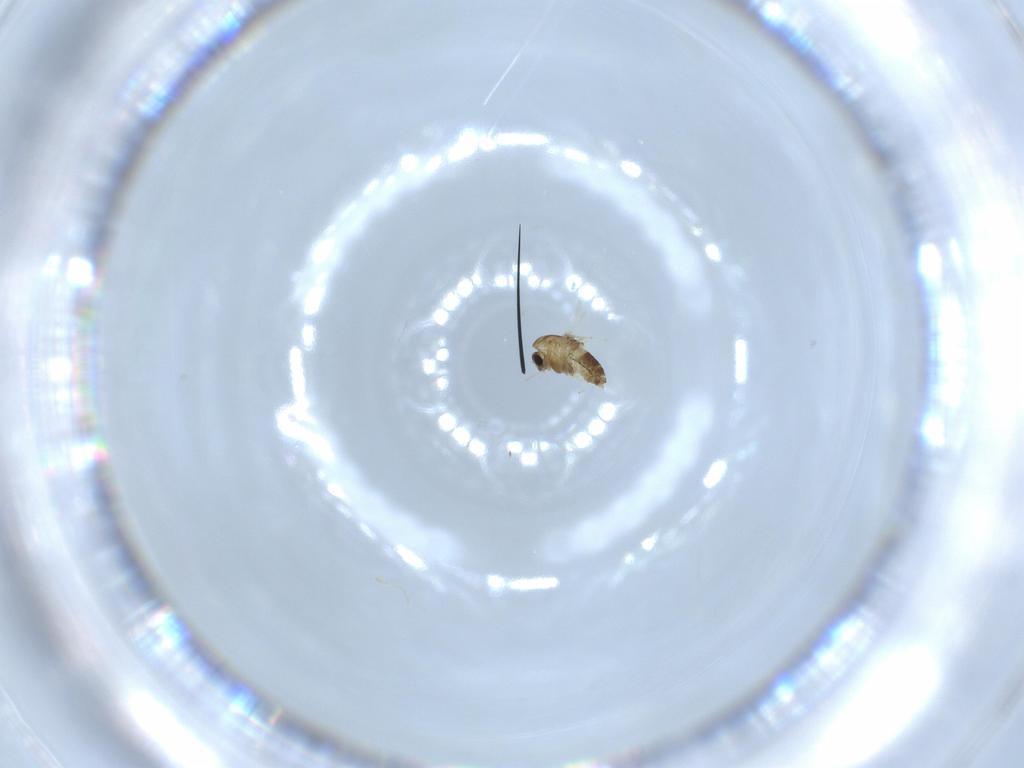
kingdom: Animalia
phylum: Arthropoda
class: Insecta
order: Diptera
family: Chironomidae
